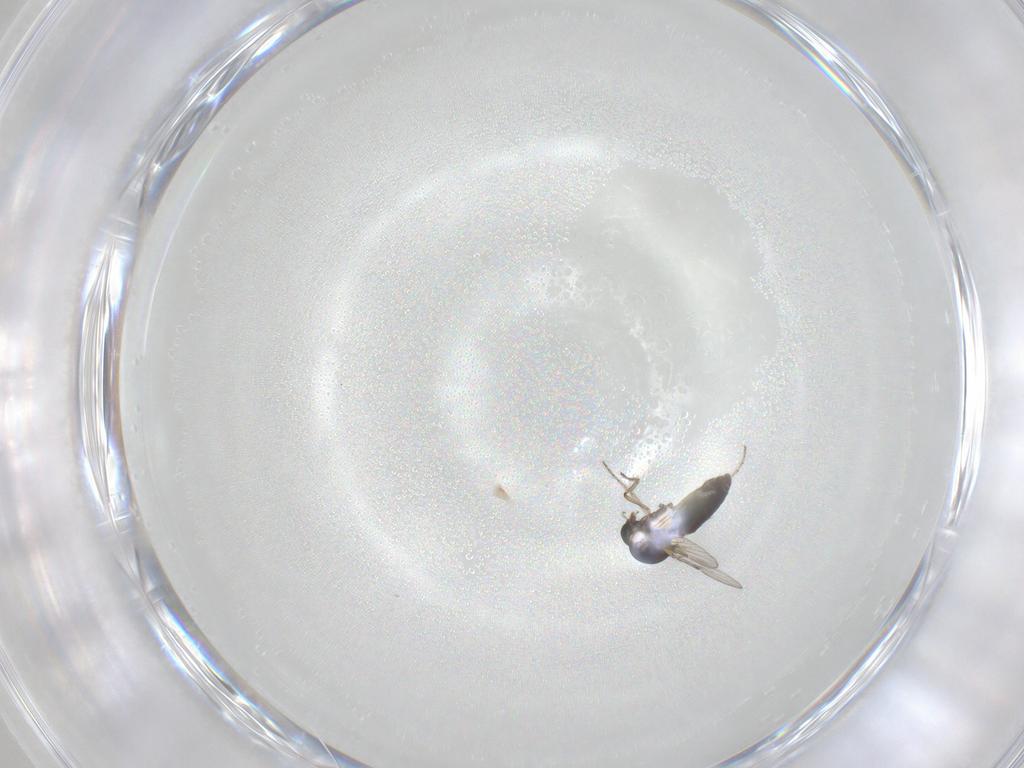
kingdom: Animalia
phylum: Arthropoda
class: Insecta
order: Diptera
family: Ceratopogonidae
